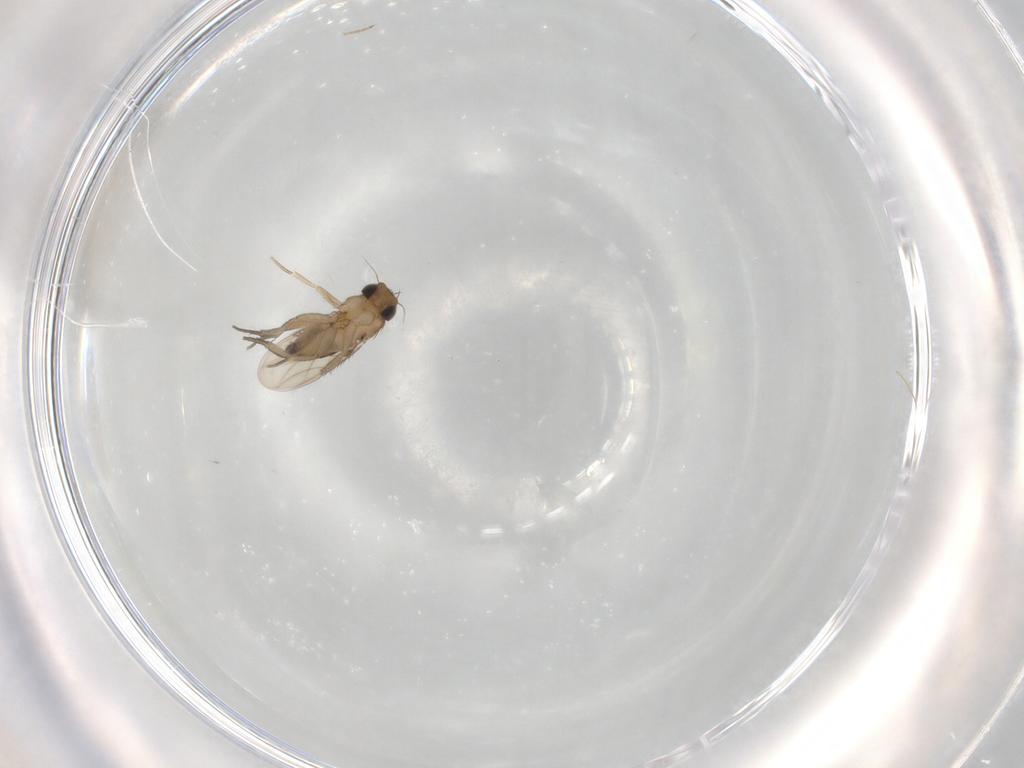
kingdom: Animalia
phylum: Arthropoda
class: Insecta
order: Diptera
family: Phoridae
